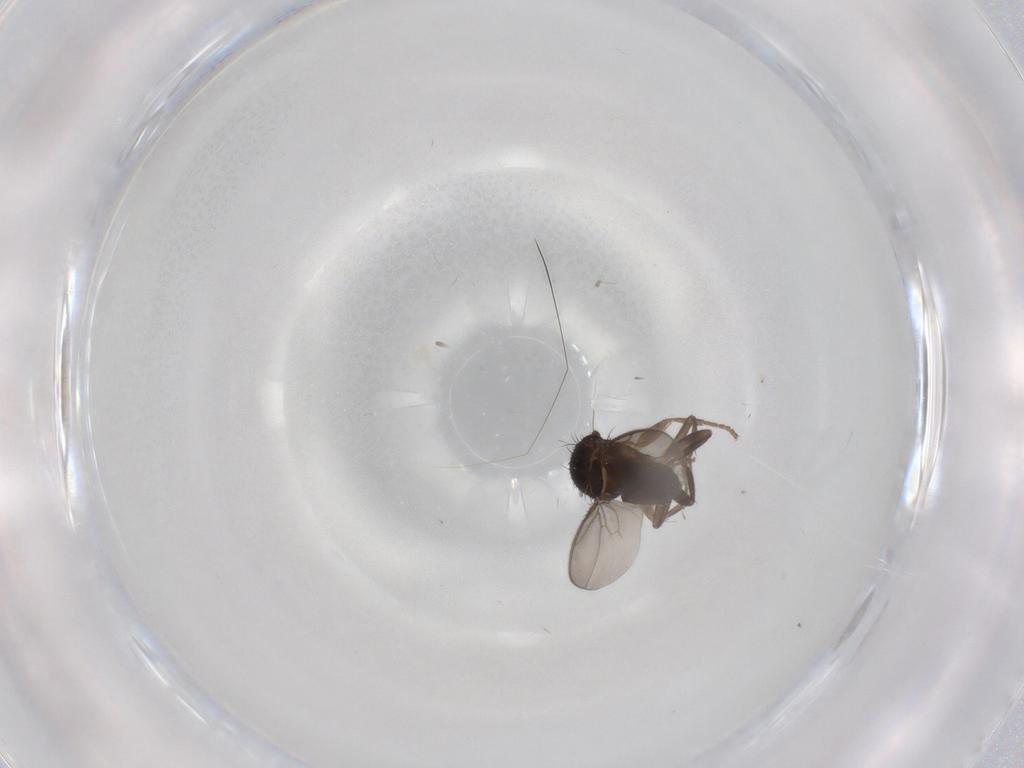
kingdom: Animalia
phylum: Arthropoda
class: Insecta
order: Diptera
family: Sphaeroceridae
